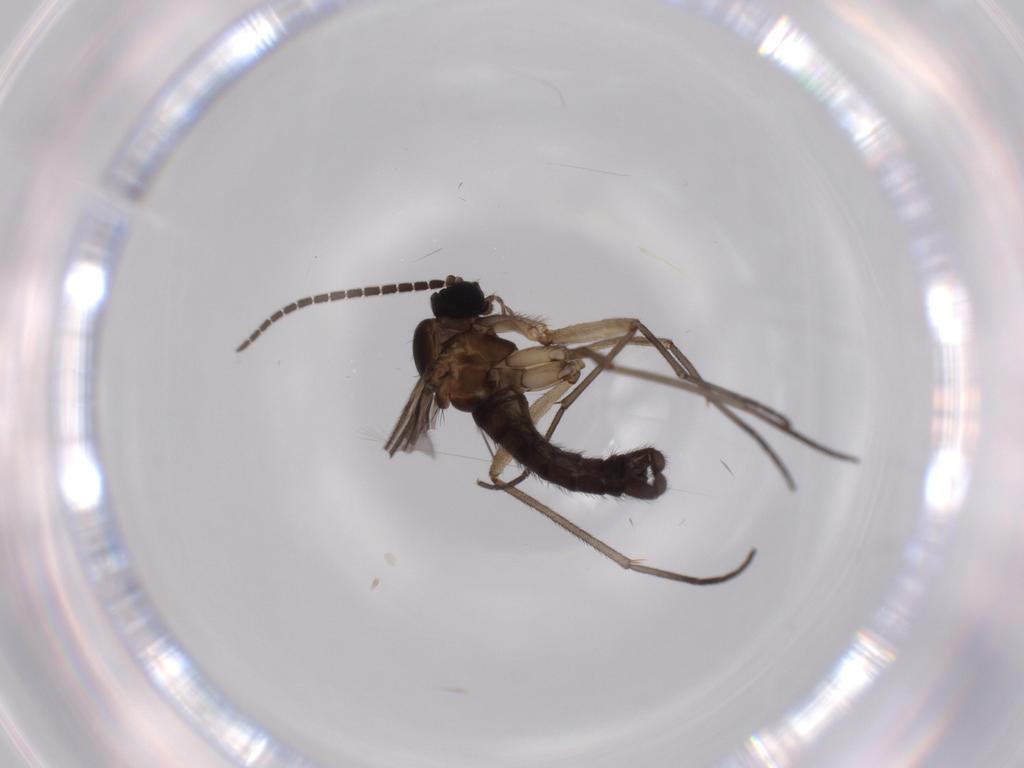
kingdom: Animalia
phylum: Arthropoda
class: Insecta
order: Diptera
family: Sciaridae
